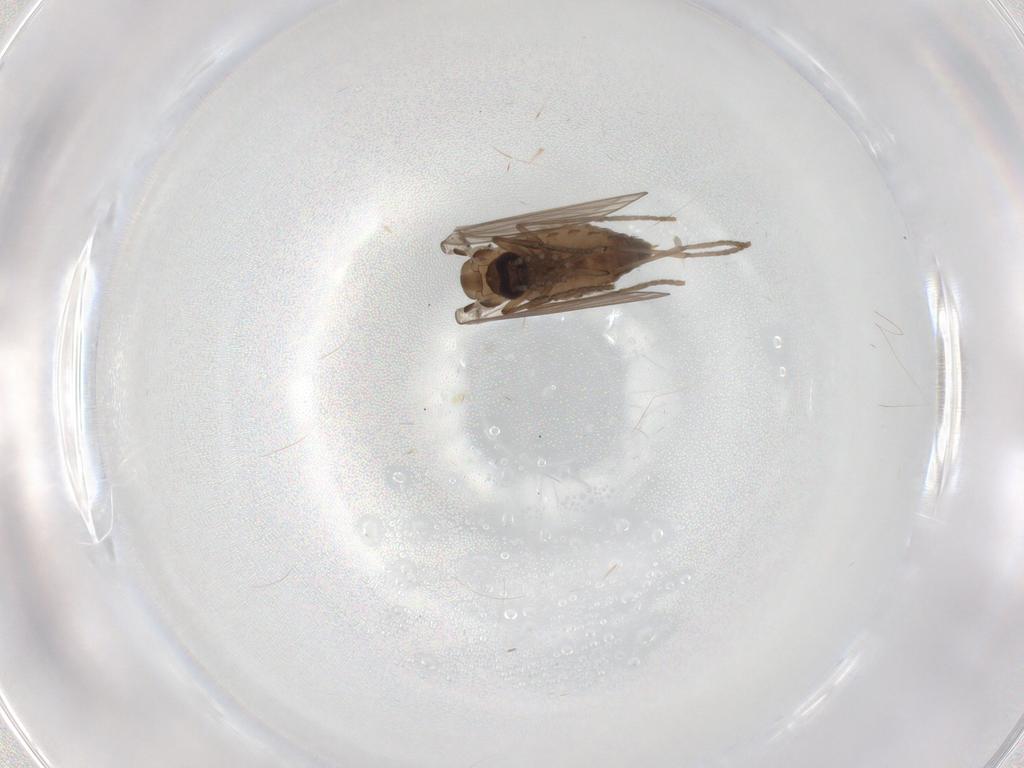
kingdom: Animalia
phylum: Arthropoda
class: Insecta
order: Diptera
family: Psychodidae
